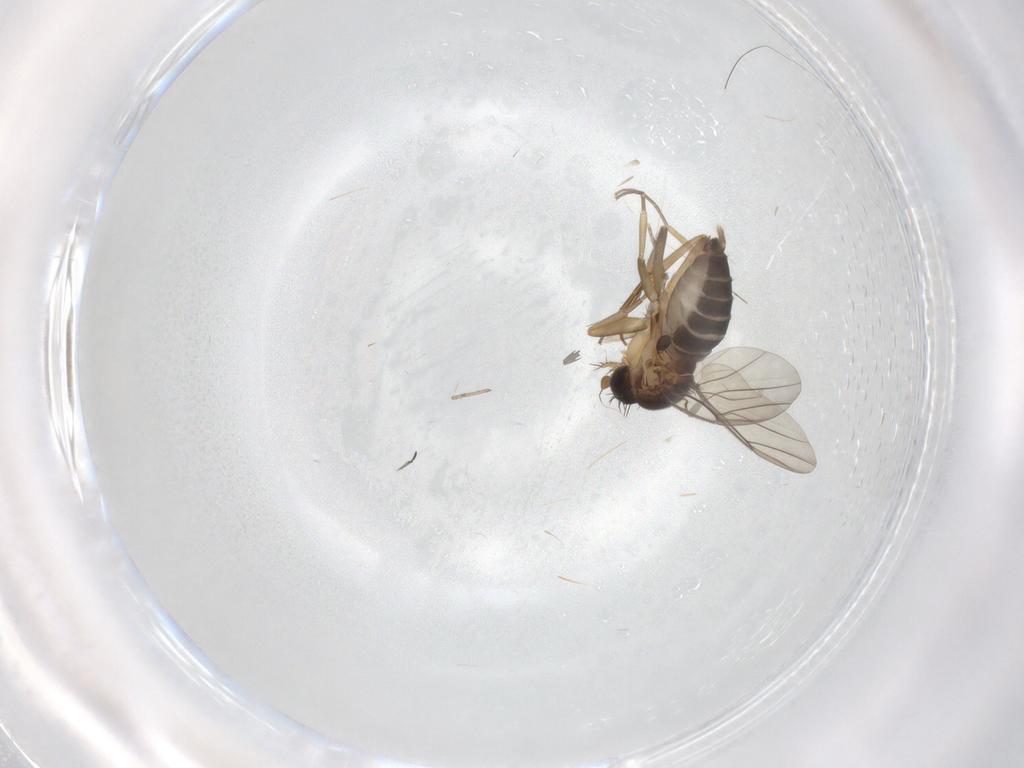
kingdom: Animalia
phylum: Arthropoda
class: Insecta
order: Diptera
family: Phoridae
